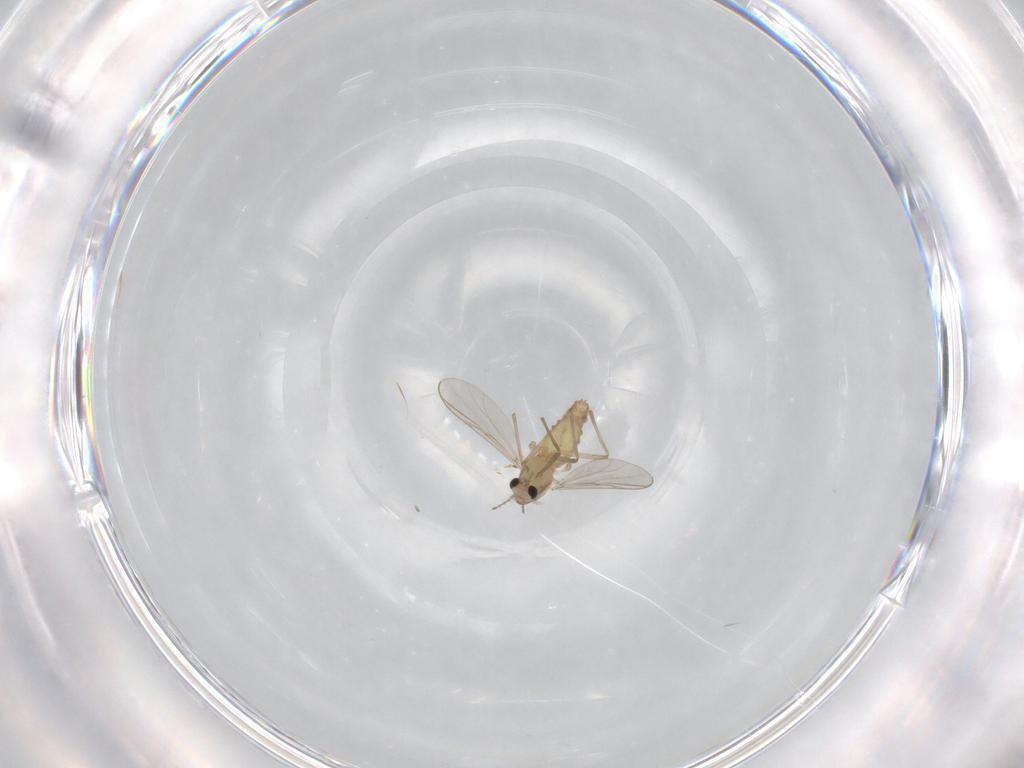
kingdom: Animalia
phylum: Arthropoda
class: Insecta
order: Diptera
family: Chironomidae
